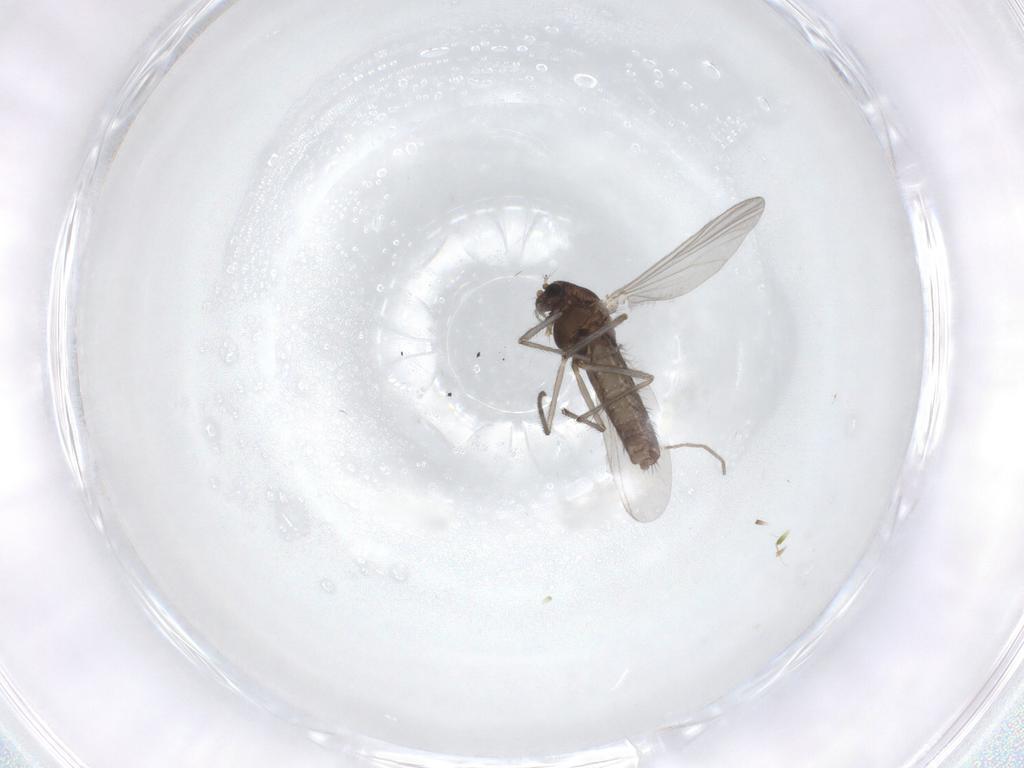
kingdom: Animalia
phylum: Arthropoda
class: Insecta
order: Diptera
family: Chironomidae
